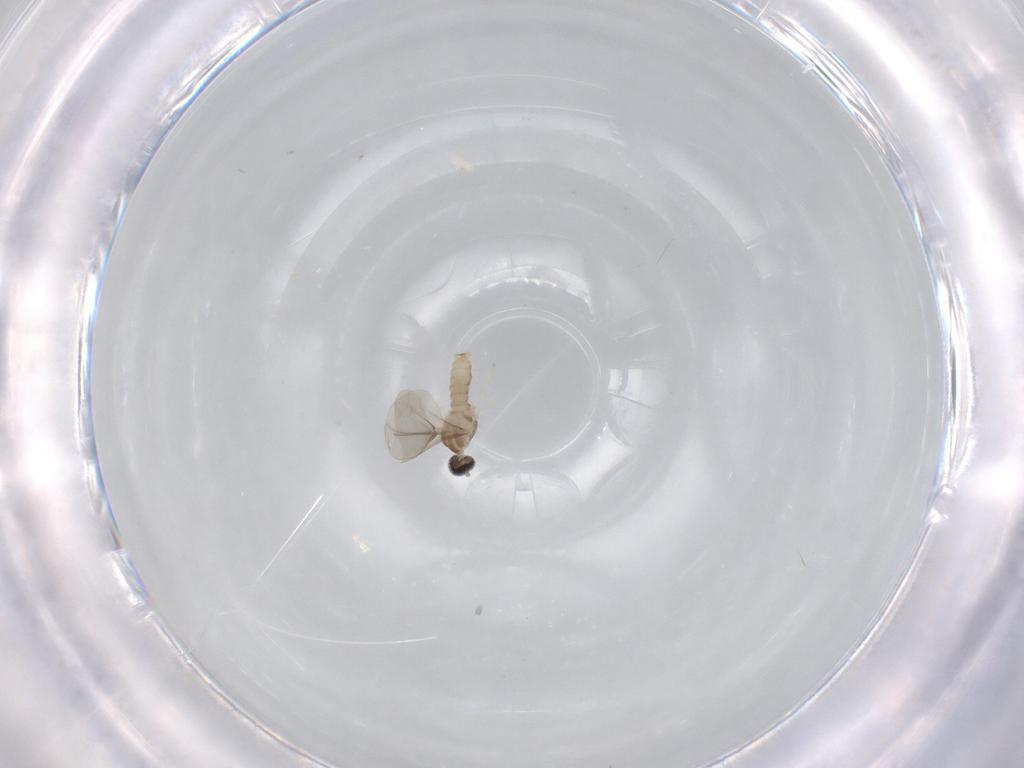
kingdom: Animalia
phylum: Arthropoda
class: Insecta
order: Diptera
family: Cecidomyiidae
